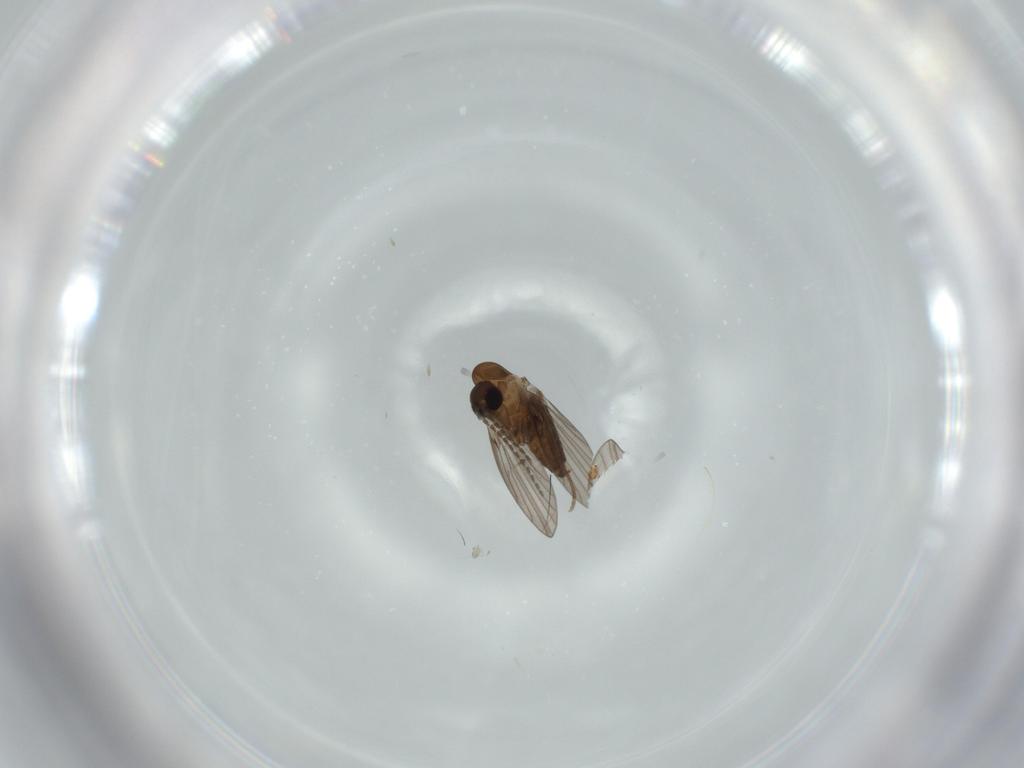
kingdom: Animalia
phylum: Arthropoda
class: Insecta
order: Diptera
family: Psychodidae
